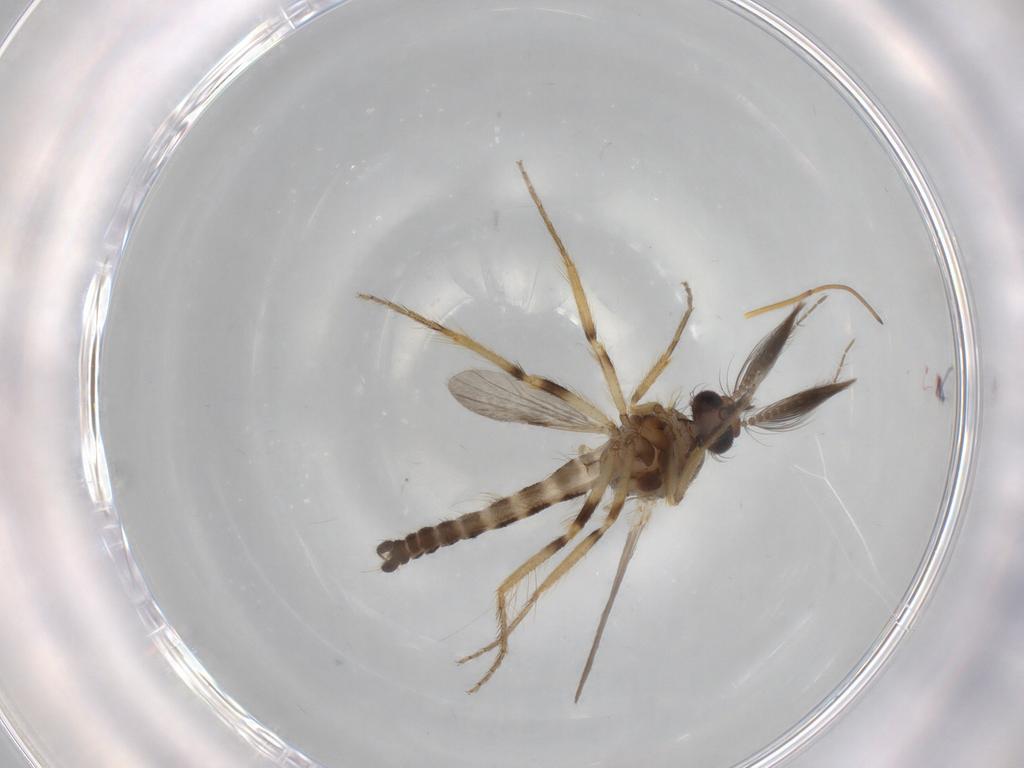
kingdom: Animalia
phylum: Arthropoda
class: Insecta
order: Diptera
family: Ceratopogonidae
